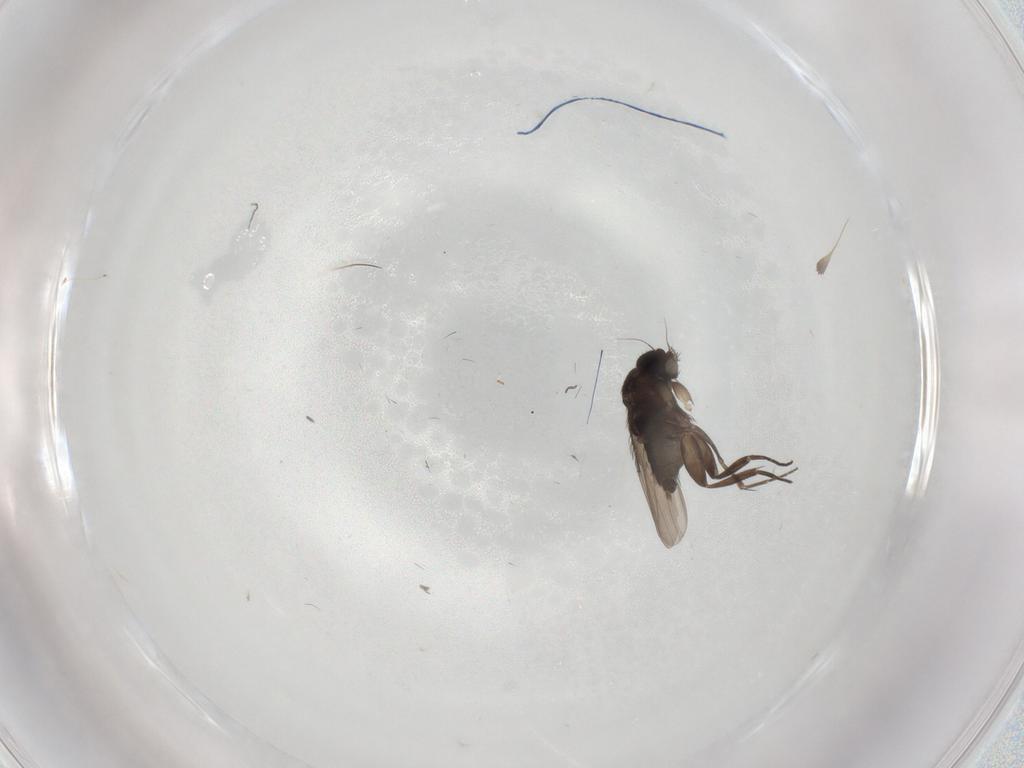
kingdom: Animalia
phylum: Arthropoda
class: Insecta
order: Diptera
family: Phoridae
